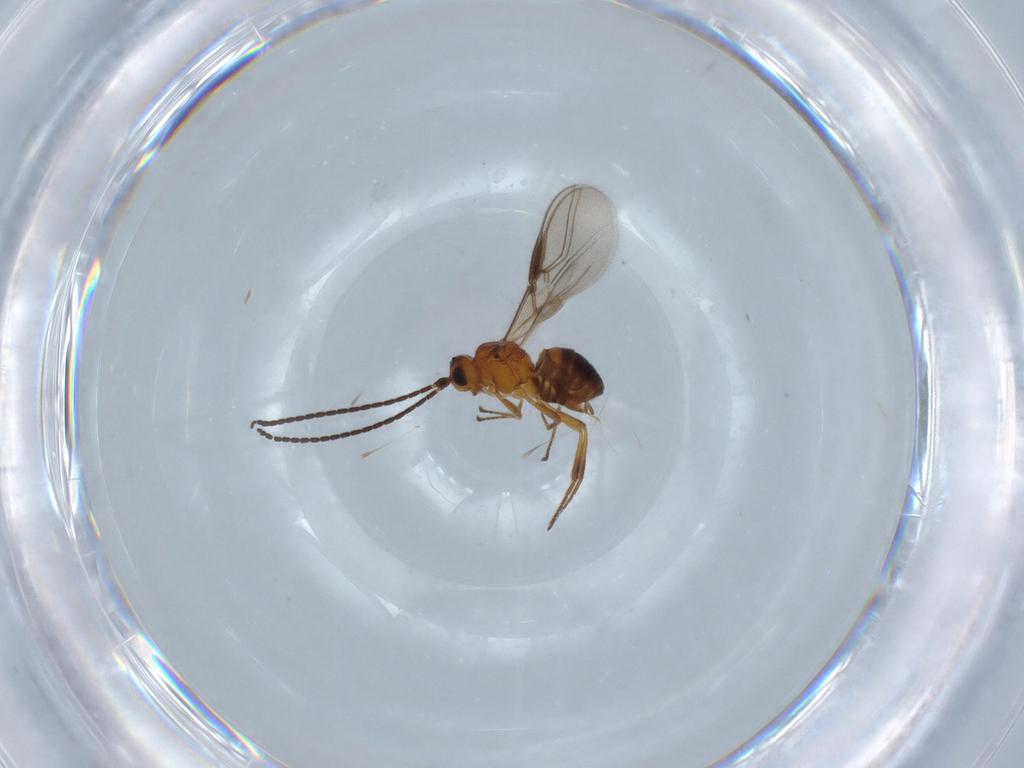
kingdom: Animalia
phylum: Arthropoda
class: Insecta
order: Hymenoptera
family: Braconidae
